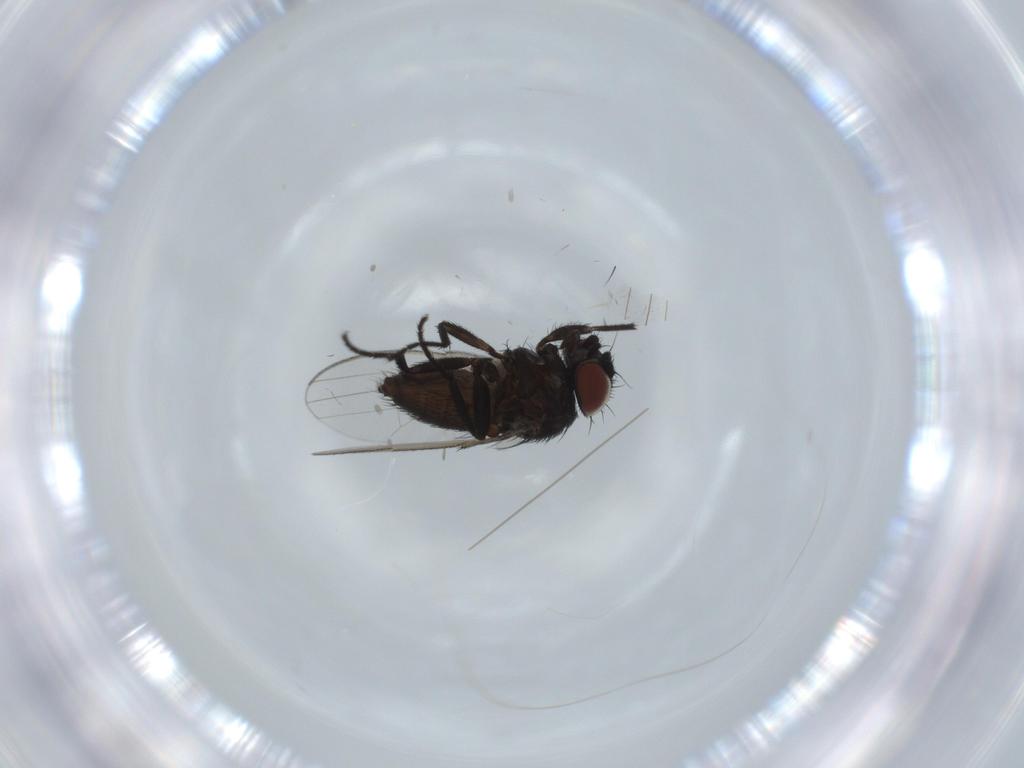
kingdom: Animalia
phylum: Arthropoda
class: Insecta
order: Diptera
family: Milichiidae
